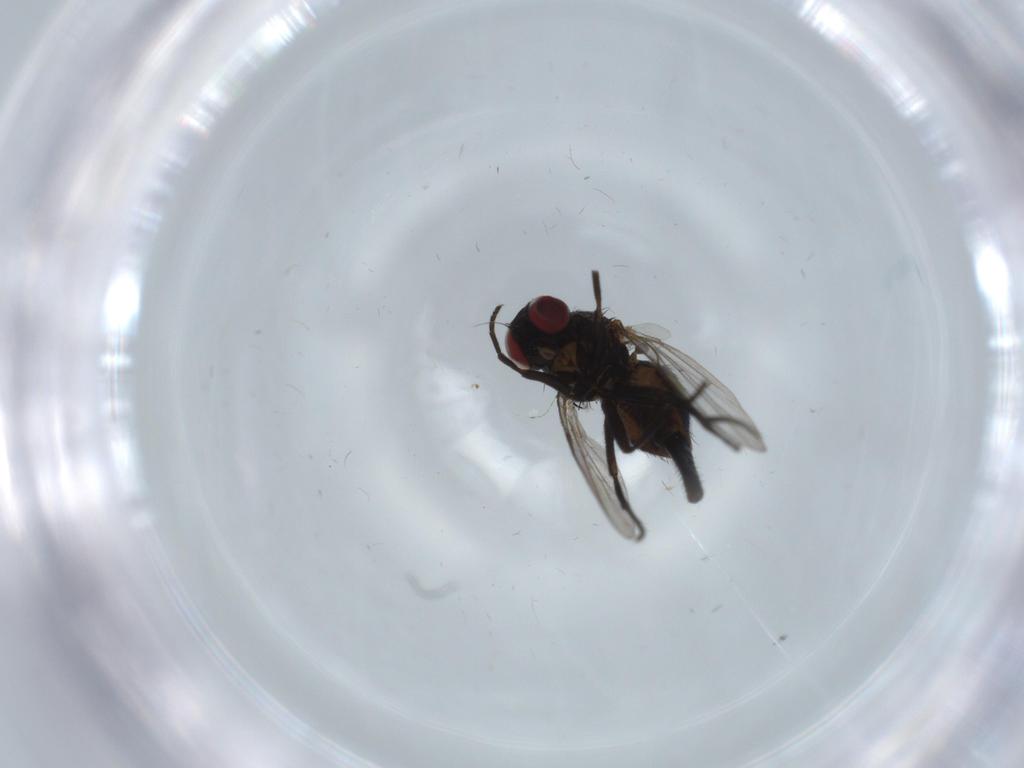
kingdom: Animalia
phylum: Arthropoda
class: Insecta
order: Diptera
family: Agromyzidae
